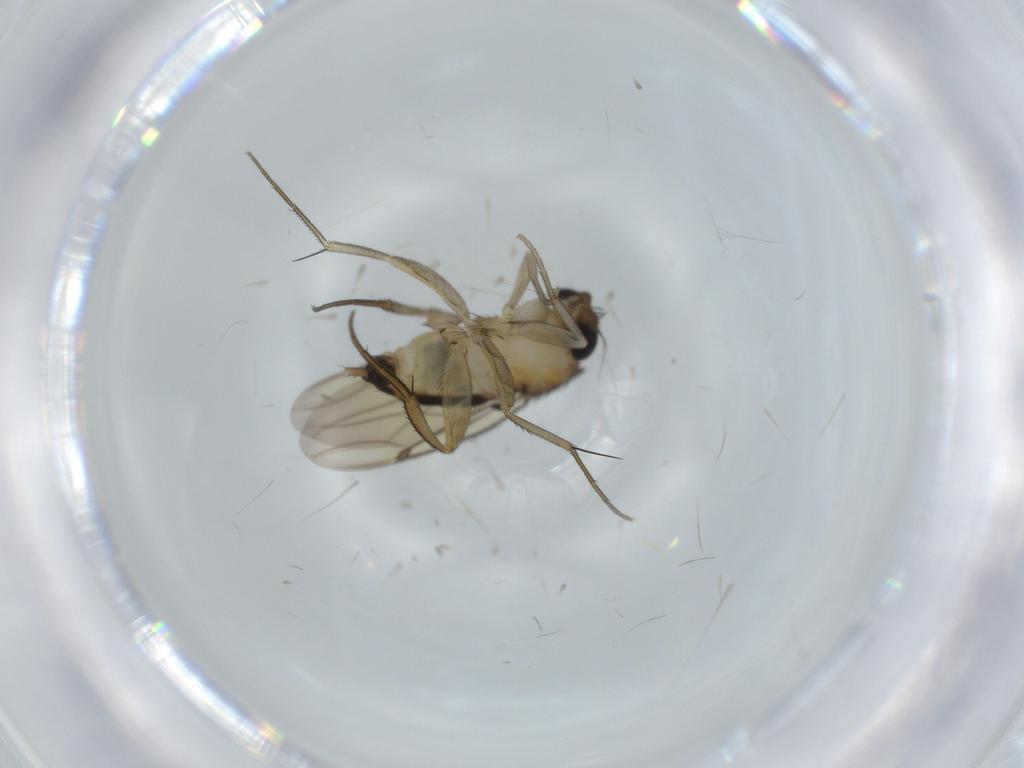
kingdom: Animalia
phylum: Arthropoda
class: Insecta
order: Diptera
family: Phoridae
